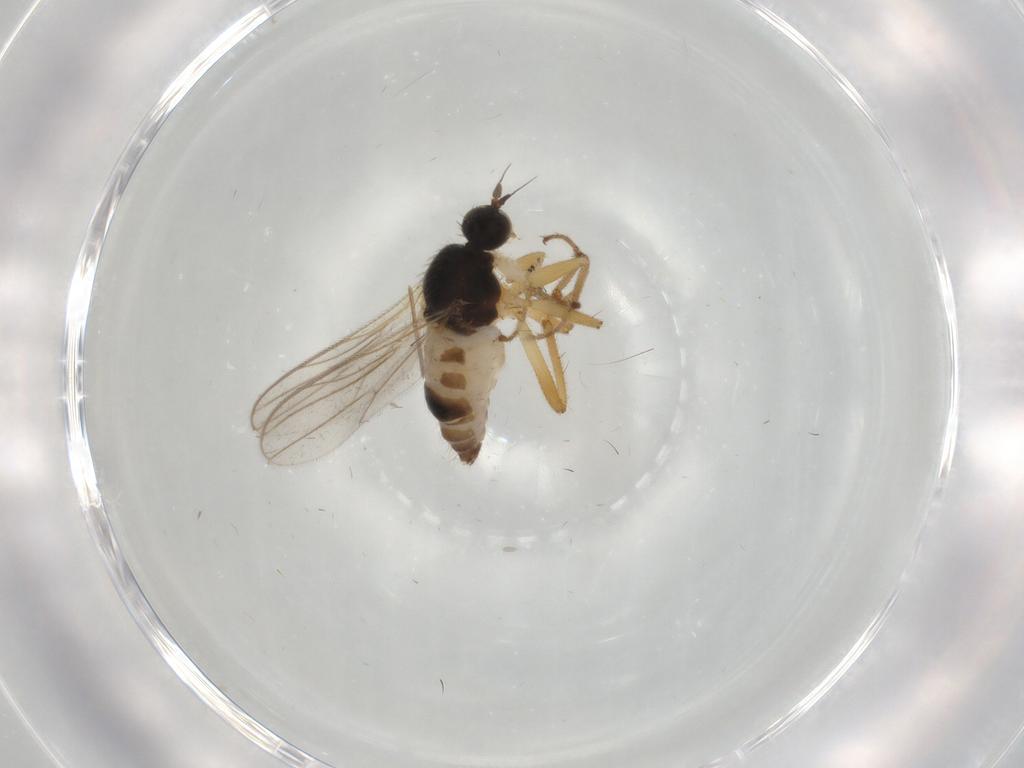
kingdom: Animalia
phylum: Arthropoda
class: Insecta
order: Diptera
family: Hybotidae
